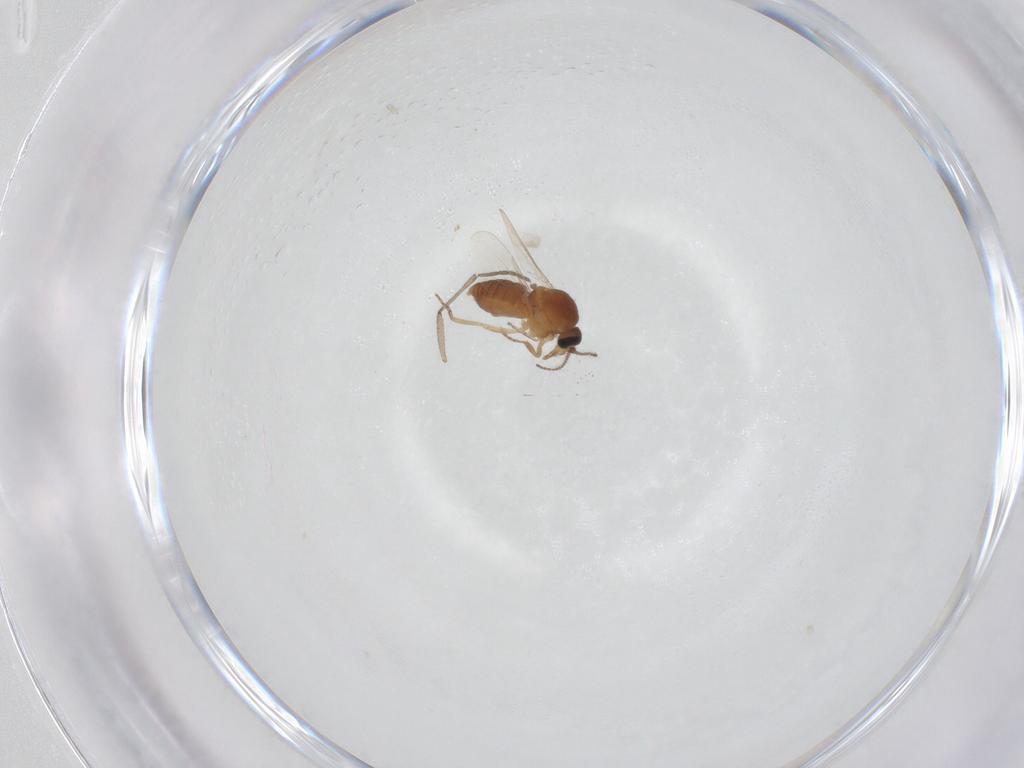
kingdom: Animalia
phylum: Arthropoda
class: Insecta
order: Diptera
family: Ceratopogonidae
